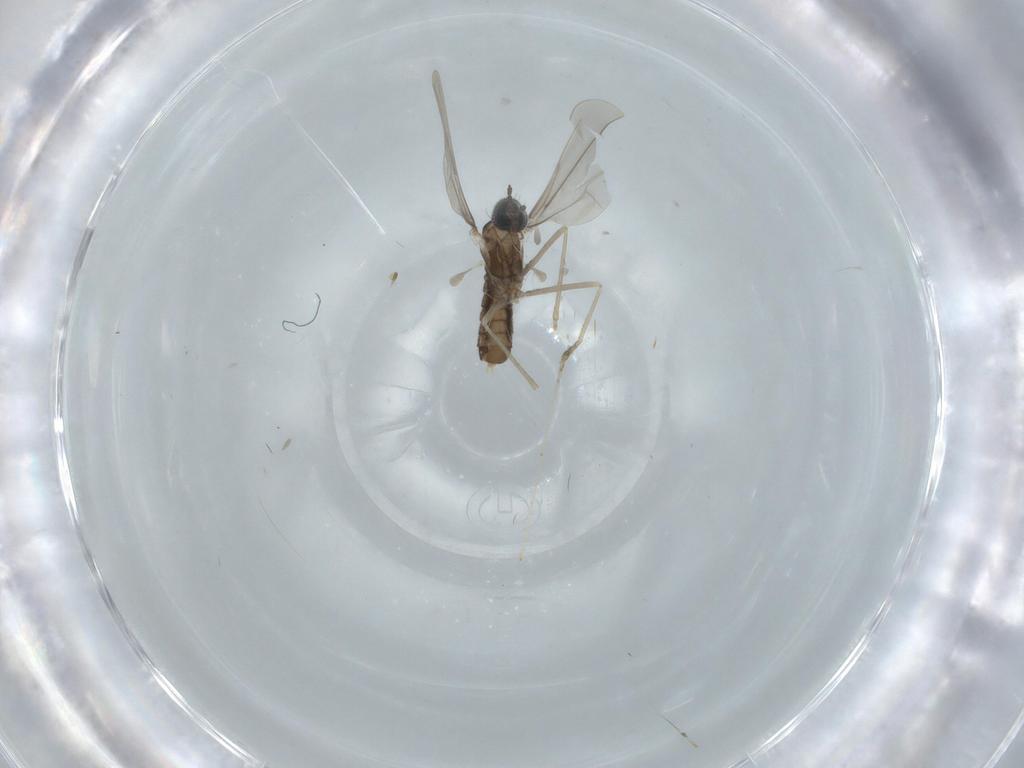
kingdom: Animalia
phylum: Arthropoda
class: Insecta
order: Diptera
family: Cecidomyiidae
